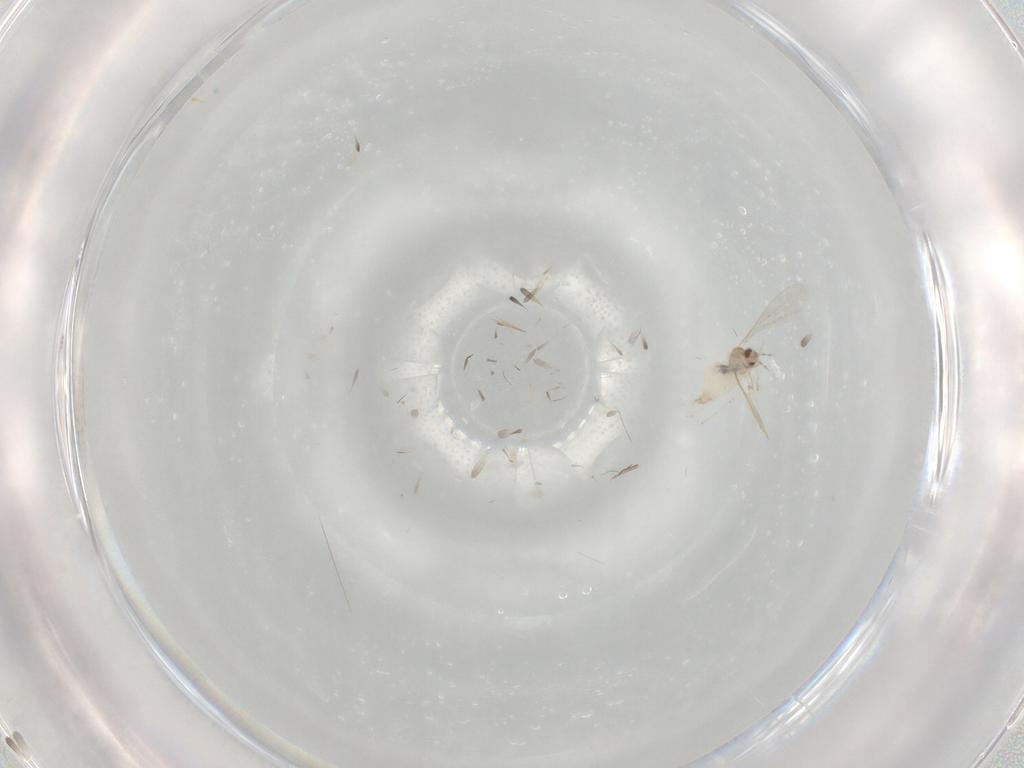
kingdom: Animalia
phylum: Arthropoda
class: Insecta
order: Diptera
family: Cecidomyiidae
